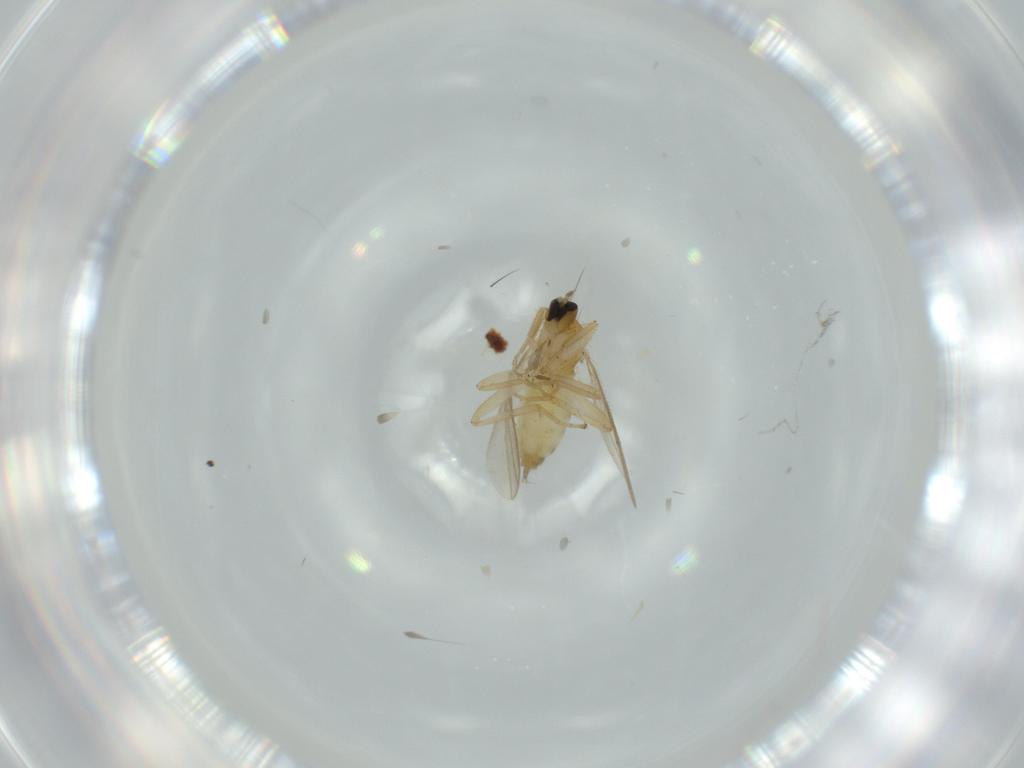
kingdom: Animalia
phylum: Arthropoda
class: Insecta
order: Diptera
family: Hybotidae
